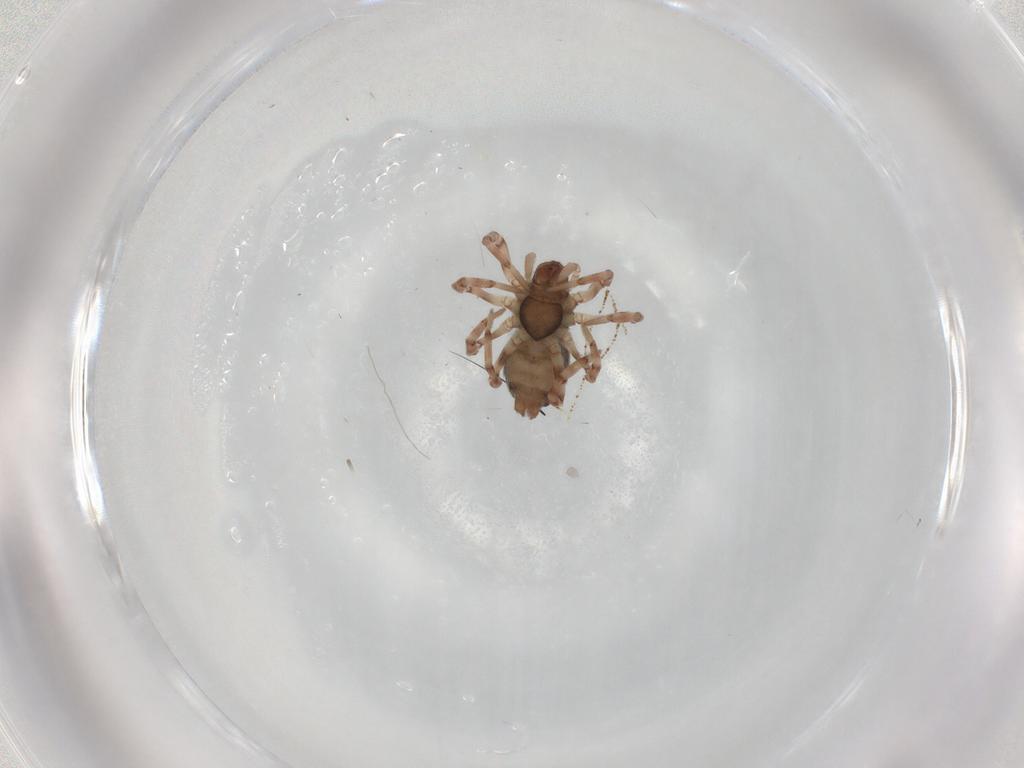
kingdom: Animalia
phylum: Arthropoda
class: Arachnida
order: Araneae
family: Dictynidae
